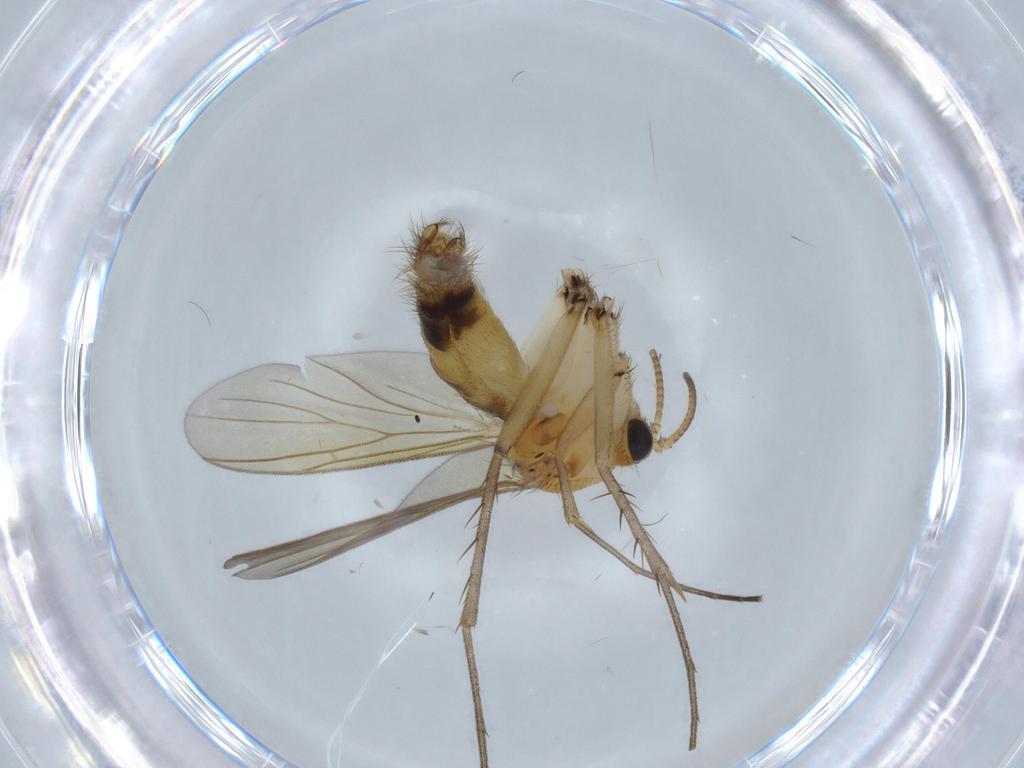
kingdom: Animalia
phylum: Arthropoda
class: Insecta
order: Diptera
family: Ceratopogonidae
